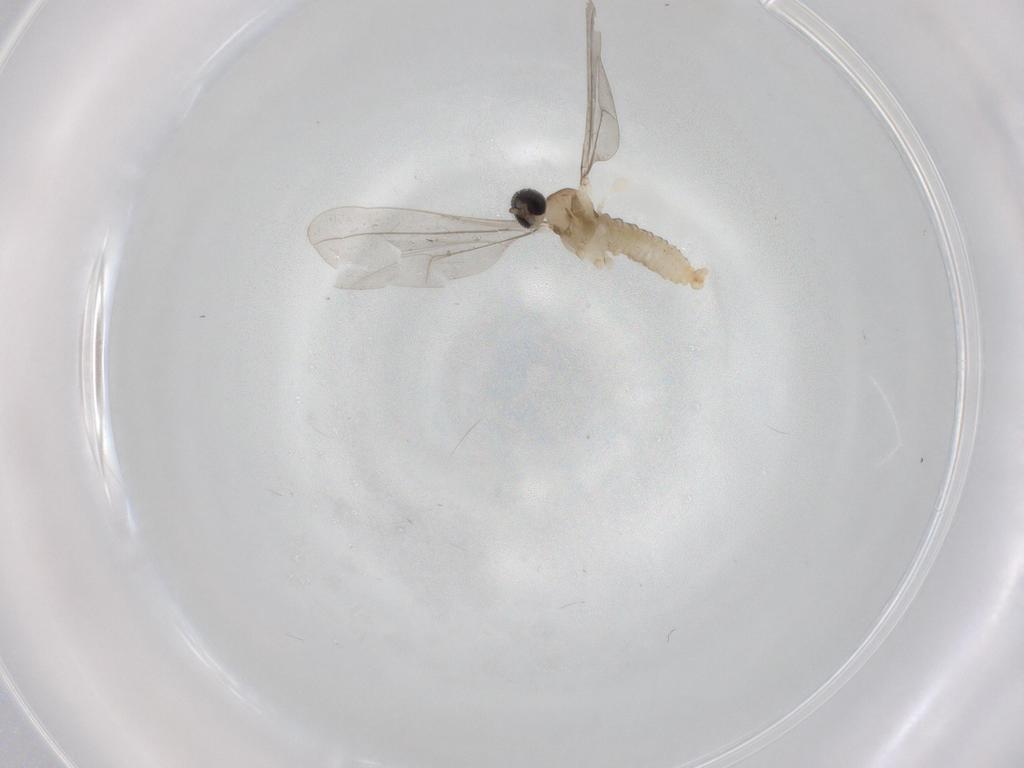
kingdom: Animalia
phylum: Arthropoda
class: Insecta
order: Diptera
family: Cecidomyiidae
